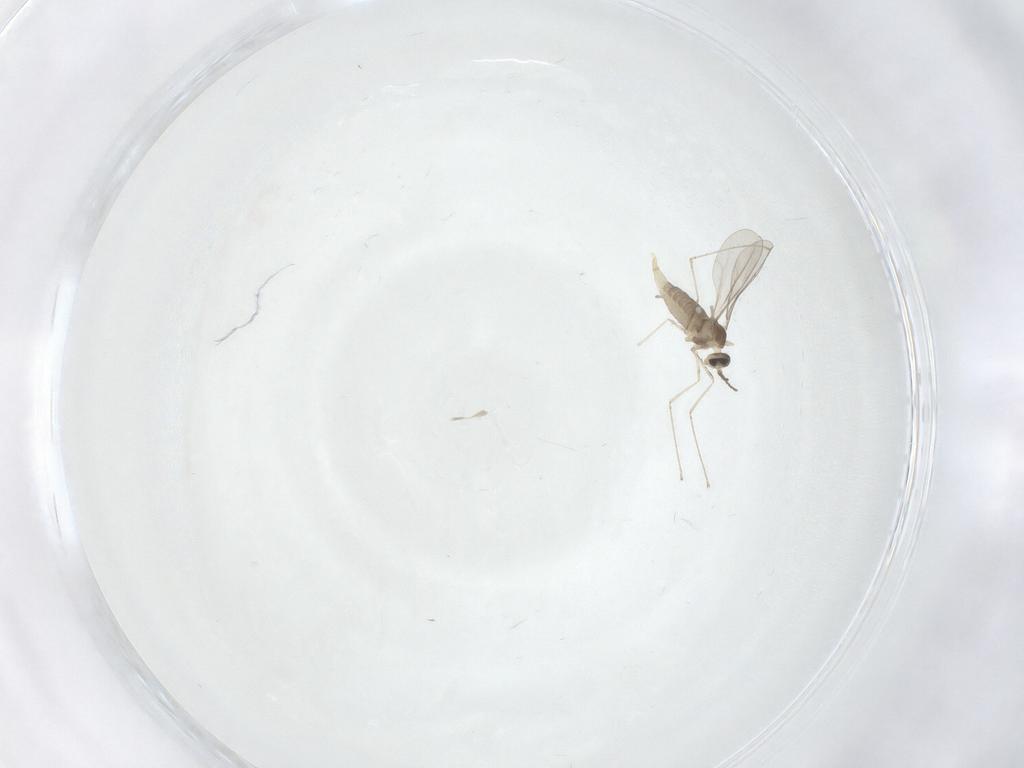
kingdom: Animalia
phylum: Arthropoda
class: Insecta
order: Diptera
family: Cecidomyiidae
